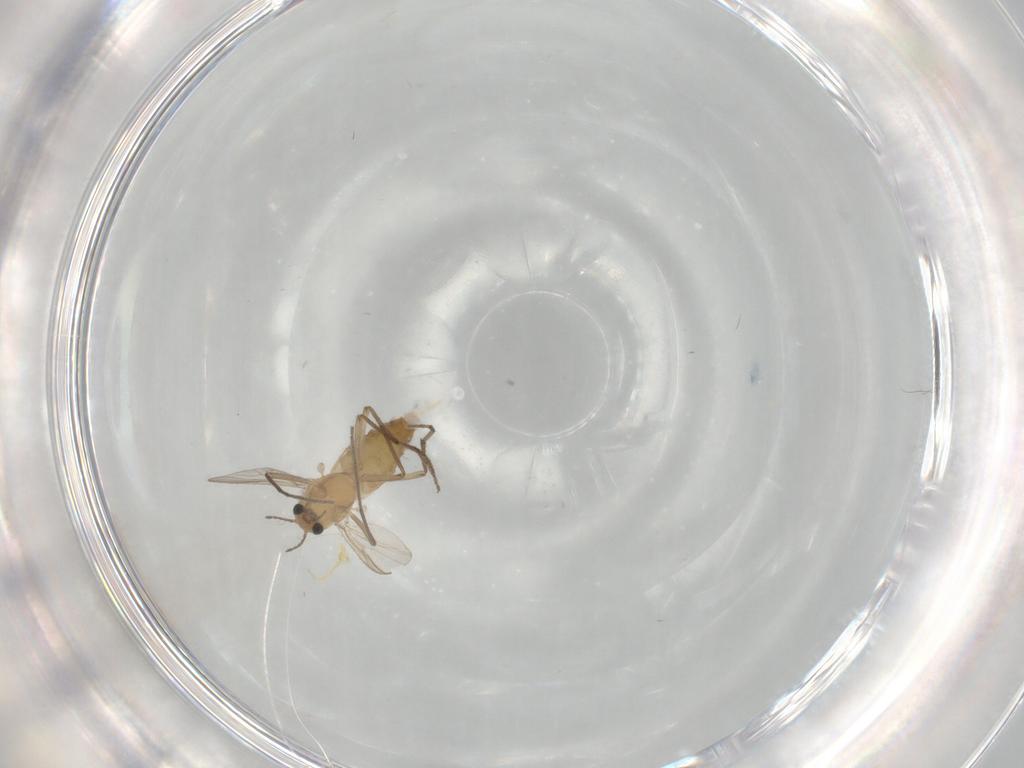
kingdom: Animalia
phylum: Arthropoda
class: Insecta
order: Diptera
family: Chironomidae
